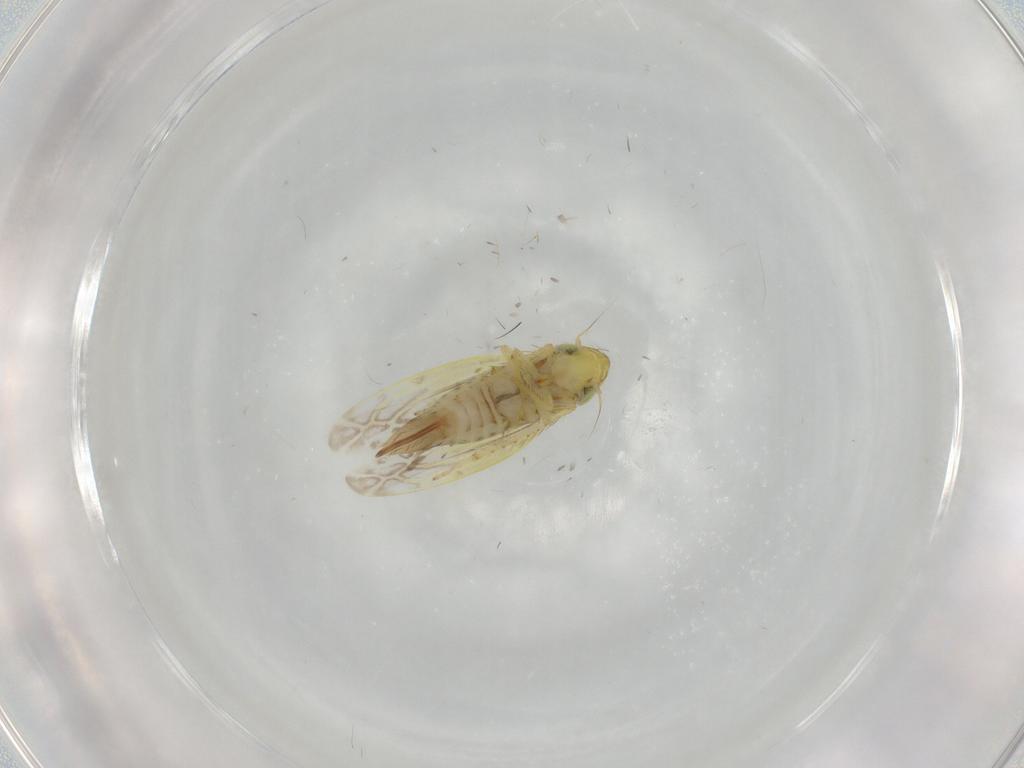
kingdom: Animalia
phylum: Arthropoda
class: Insecta
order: Hemiptera
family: Cicadellidae
